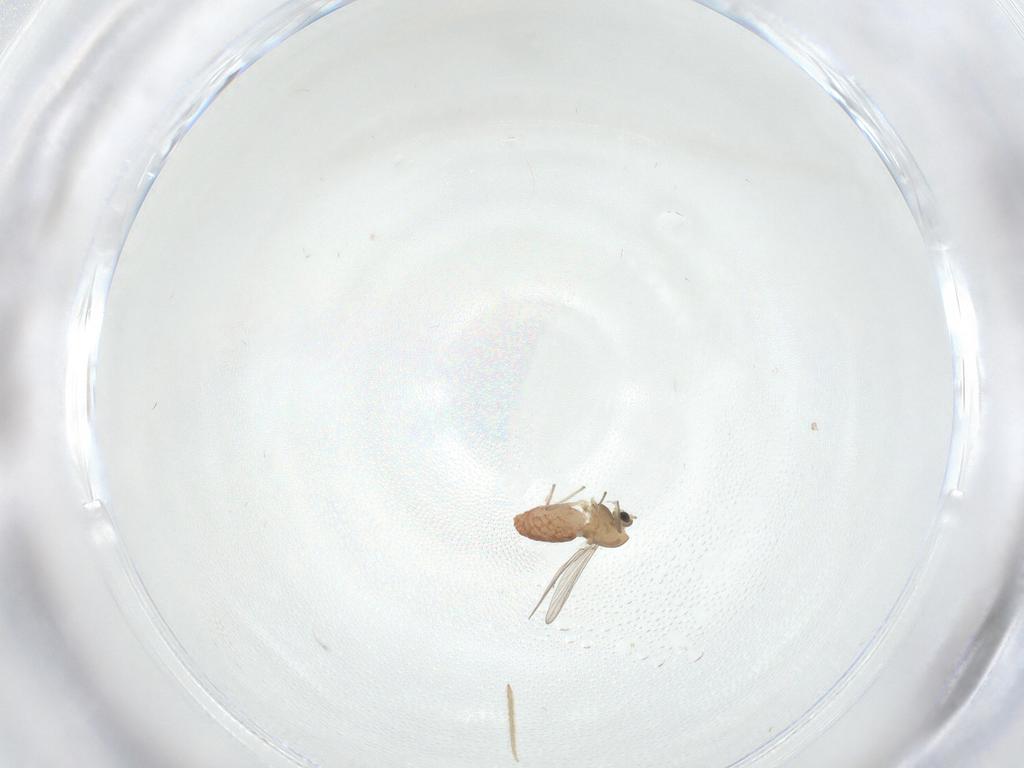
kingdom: Animalia
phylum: Arthropoda
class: Insecta
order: Diptera
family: Chironomidae
